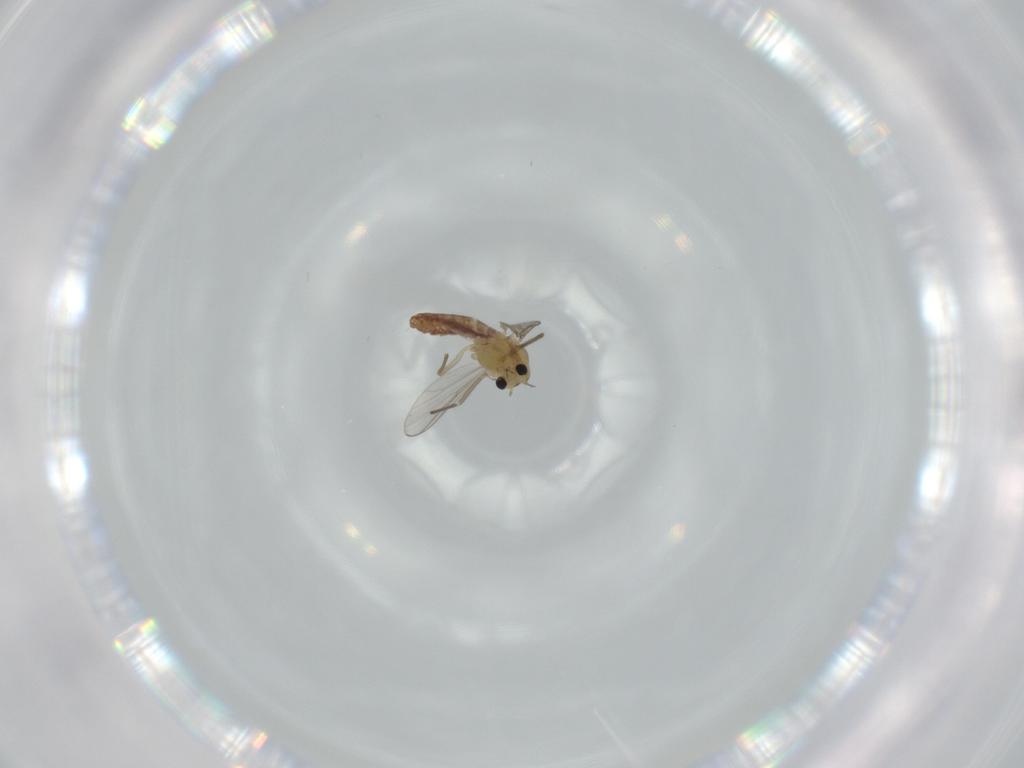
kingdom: Animalia
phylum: Arthropoda
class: Insecta
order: Diptera
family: Chironomidae
